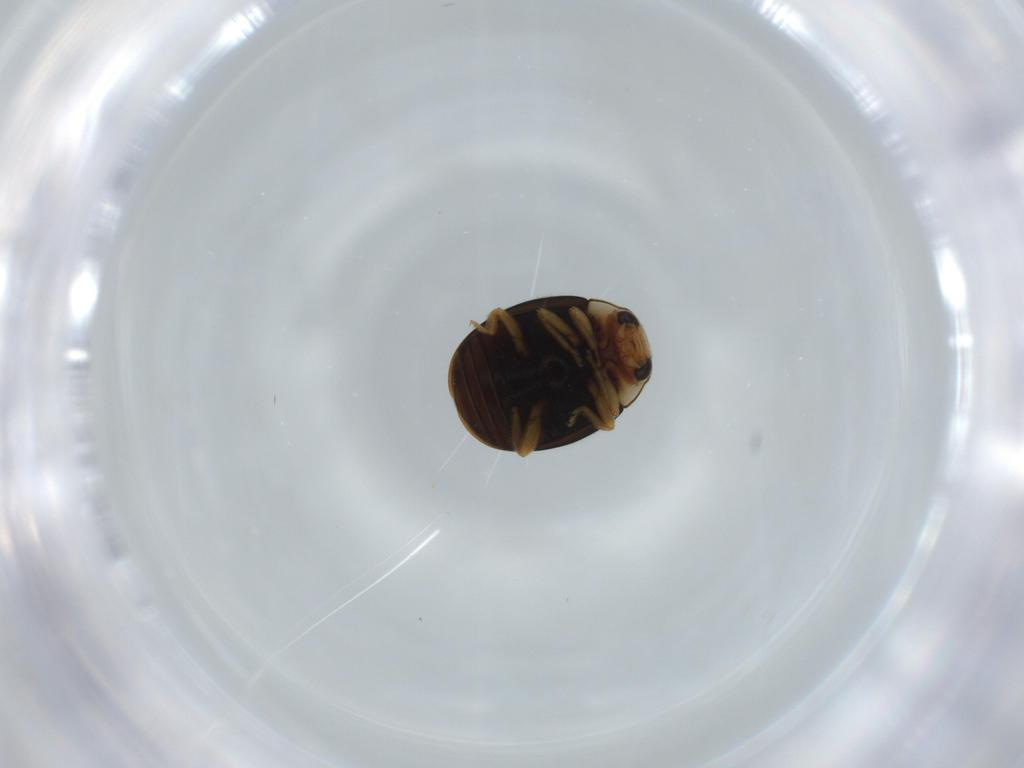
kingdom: Animalia
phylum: Arthropoda
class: Insecta
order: Coleoptera
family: Coccinellidae
